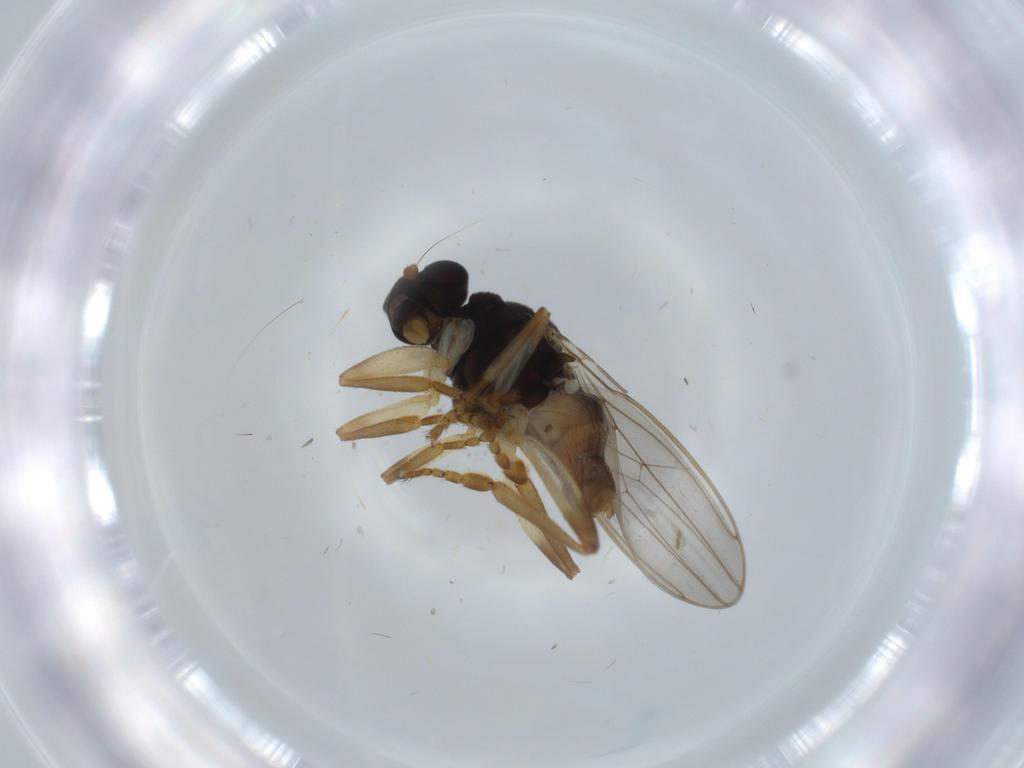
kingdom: Animalia
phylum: Arthropoda
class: Insecta
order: Diptera
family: Sphaeroceridae
